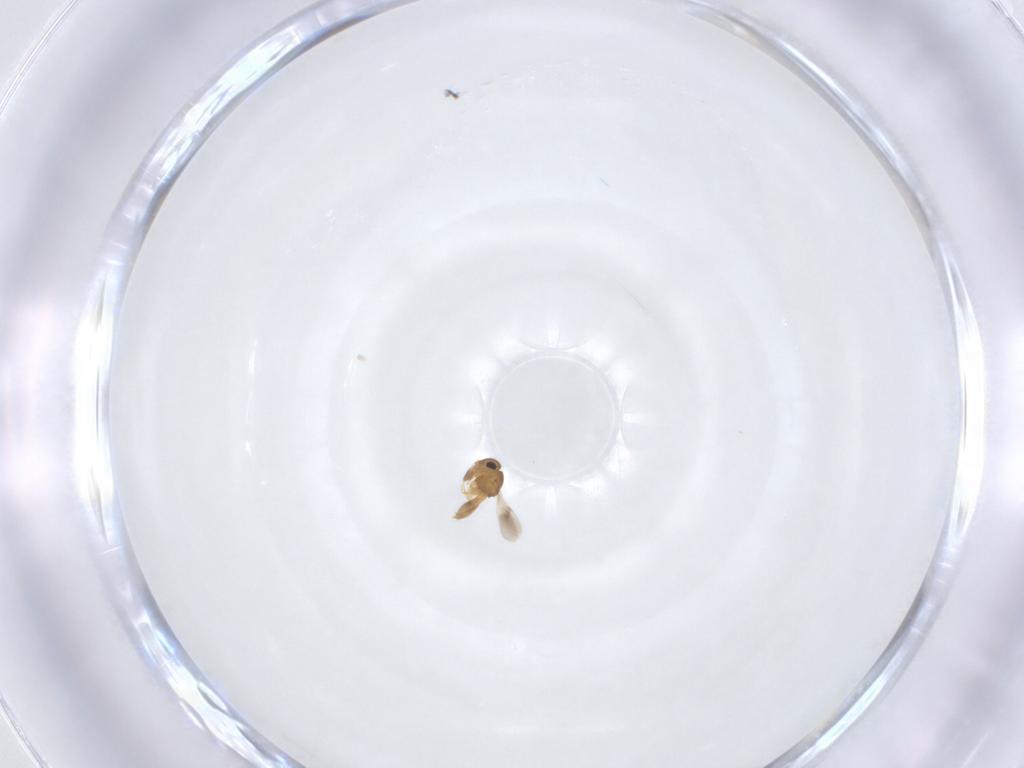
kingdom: Animalia
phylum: Arthropoda
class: Insecta
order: Hymenoptera
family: Scelionidae
